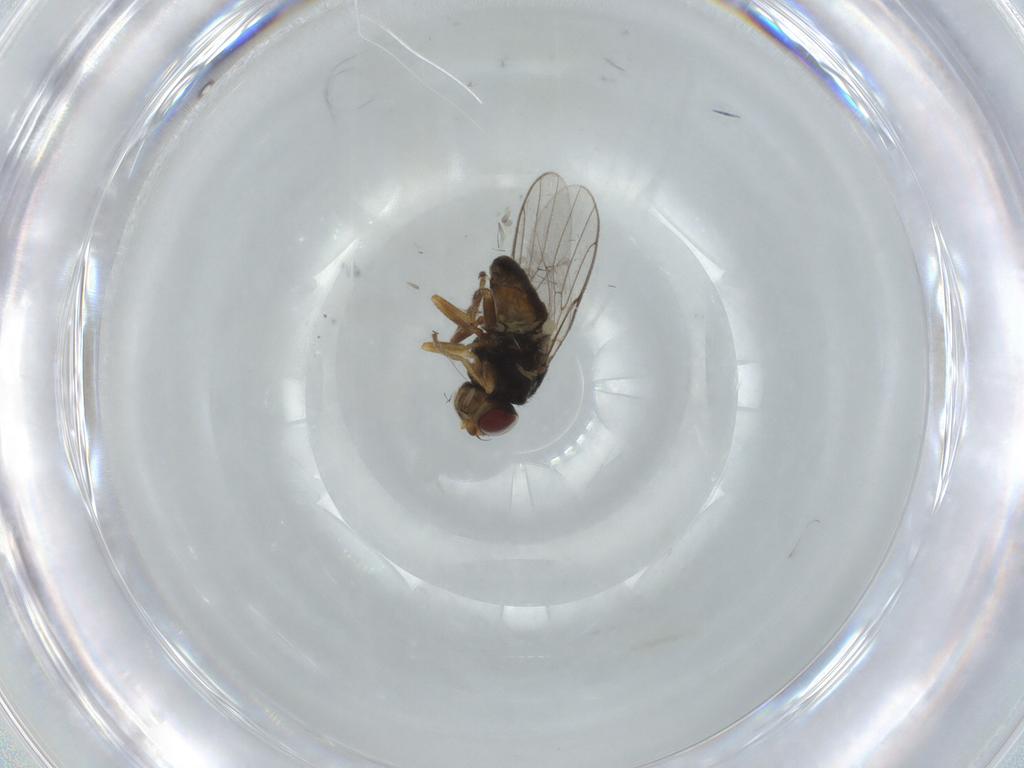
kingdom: Animalia
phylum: Arthropoda
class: Insecta
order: Diptera
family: Chloropidae
